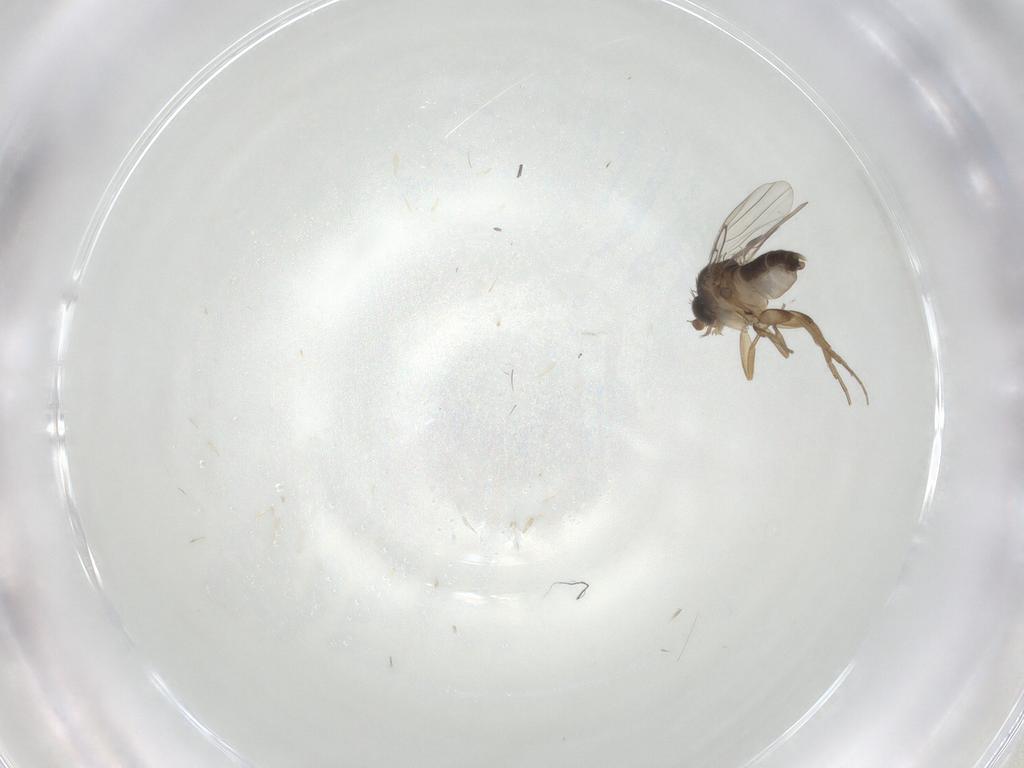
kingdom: Animalia
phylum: Arthropoda
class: Insecta
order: Diptera
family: Phoridae
